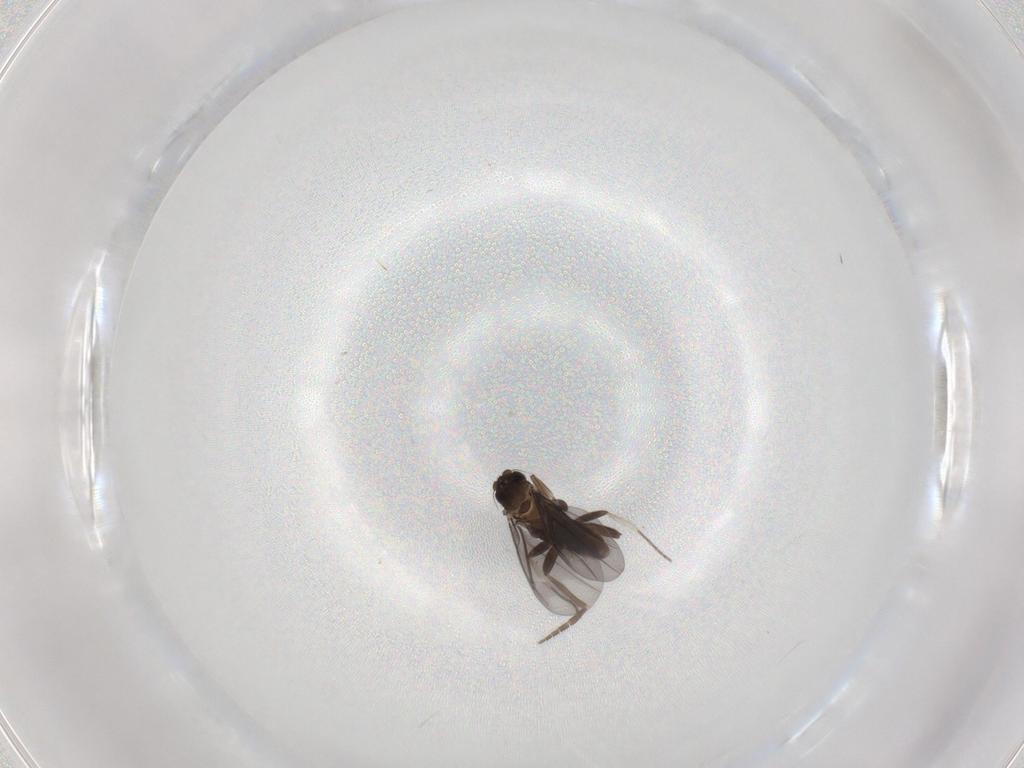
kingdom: Animalia
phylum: Arthropoda
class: Insecta
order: Diptera
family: Phoridae
